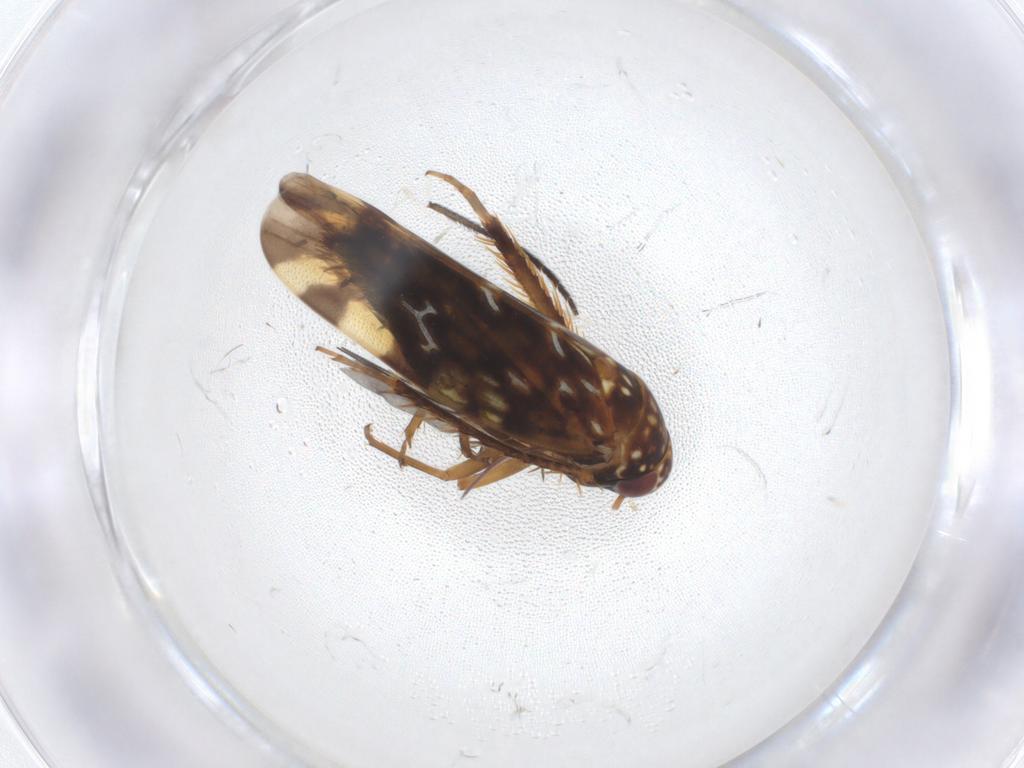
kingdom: Animalia
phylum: Arthropoda
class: Insecta
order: Hemiptera
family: Cicadellidae
